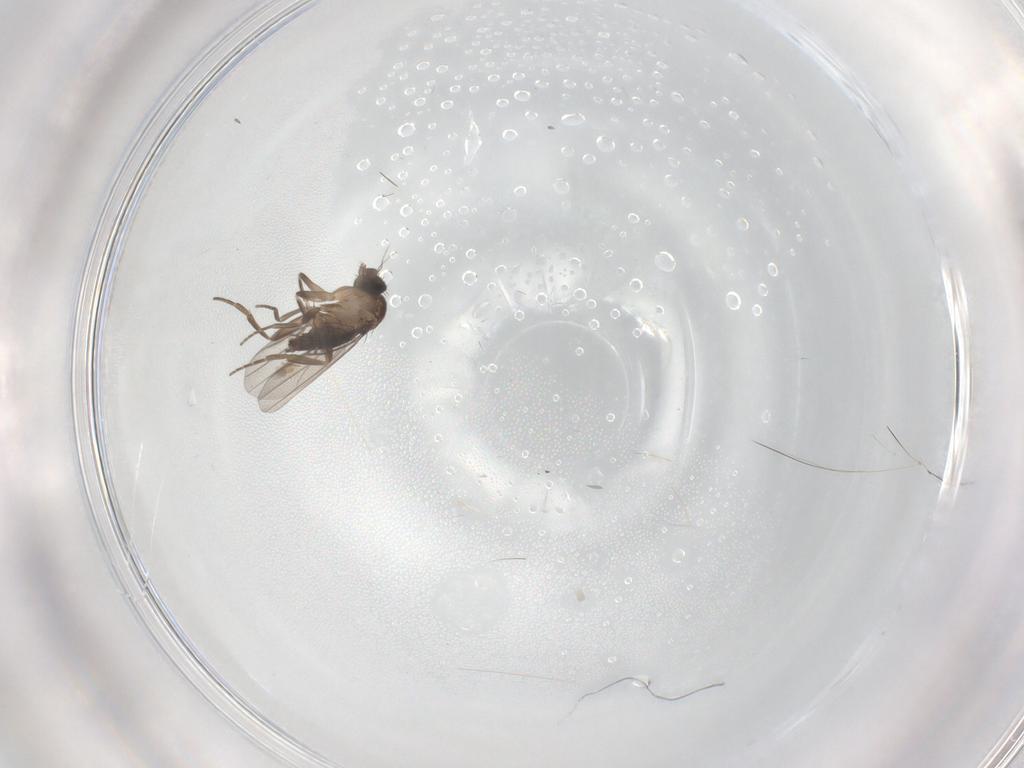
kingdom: Animalia
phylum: Arthropoda
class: Insecta
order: Diptera
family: Phoridae
